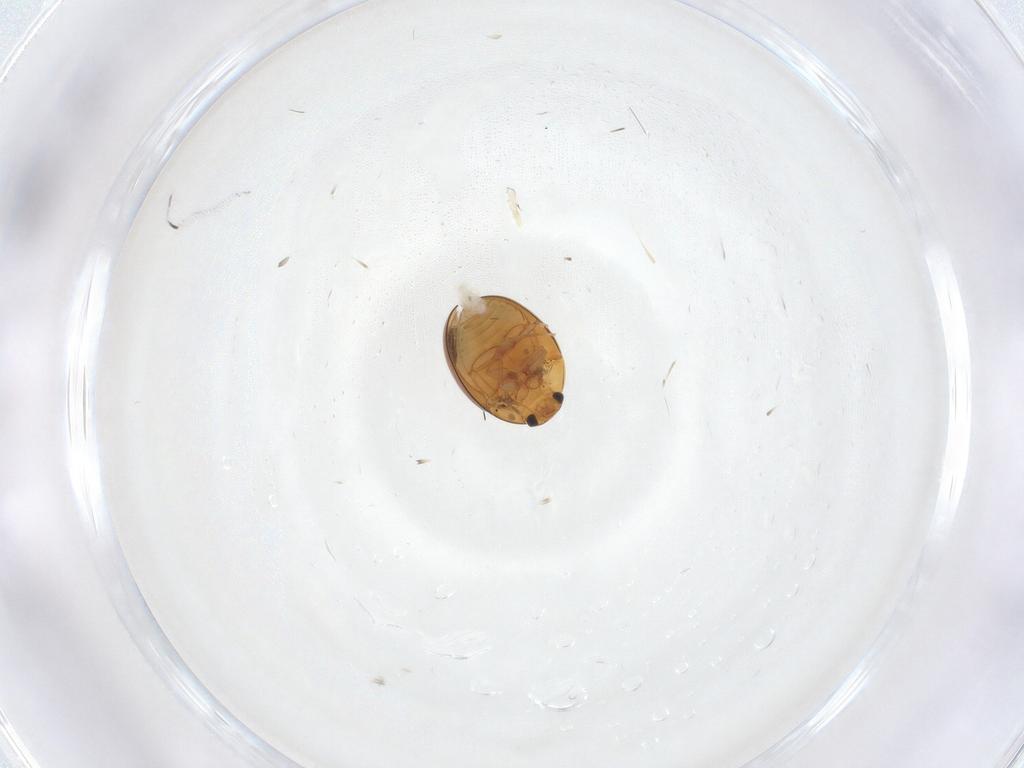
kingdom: Animalia
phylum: Arthropoda
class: Insecta
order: Coleoptera
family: Phalacridae
